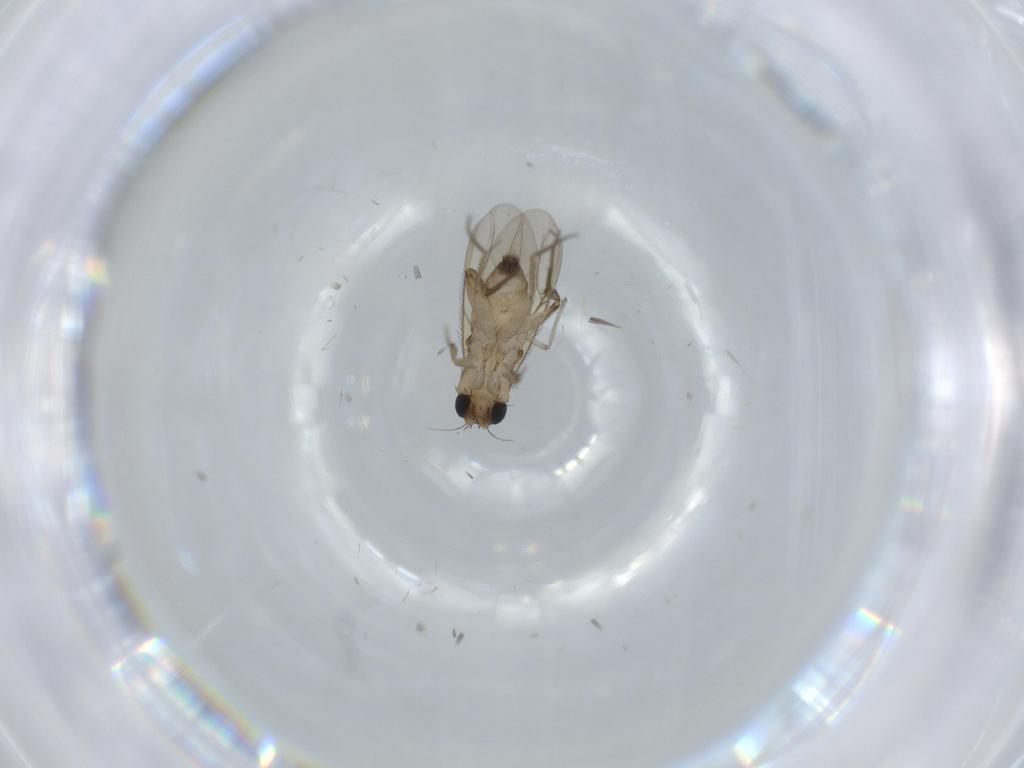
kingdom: Animalia
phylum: Arthropoda
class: Insecta
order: Diptera
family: Phoridae
